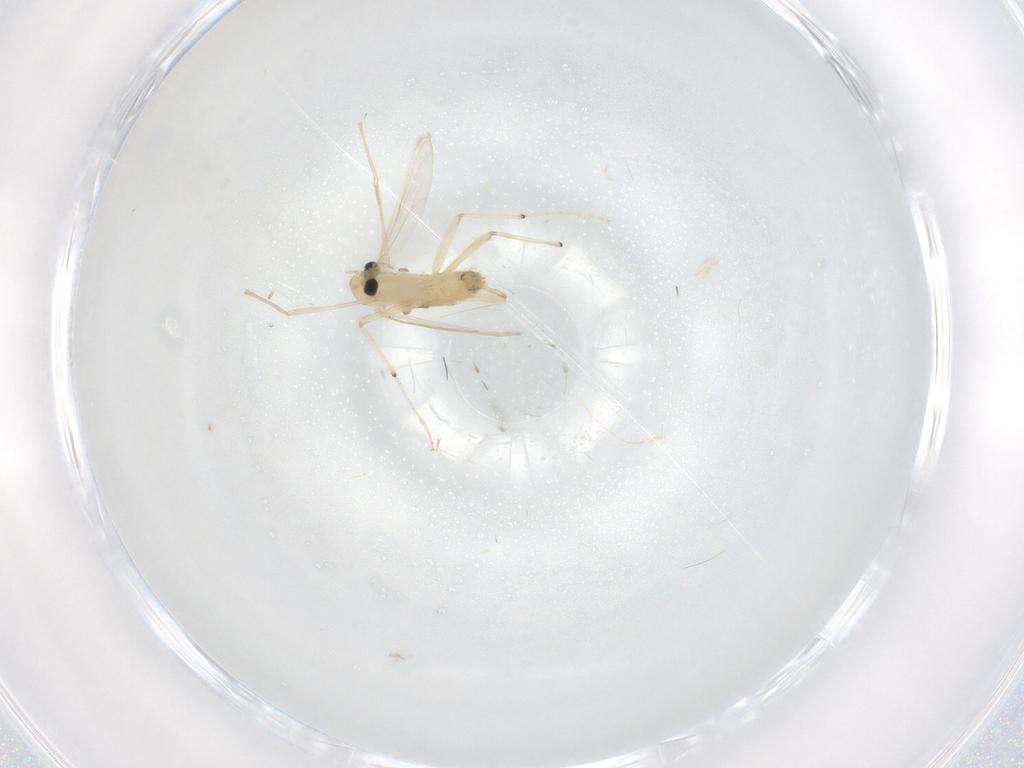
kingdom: Animalia
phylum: Arthropoda
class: Insecta
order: Diptera
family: Chironomidae
